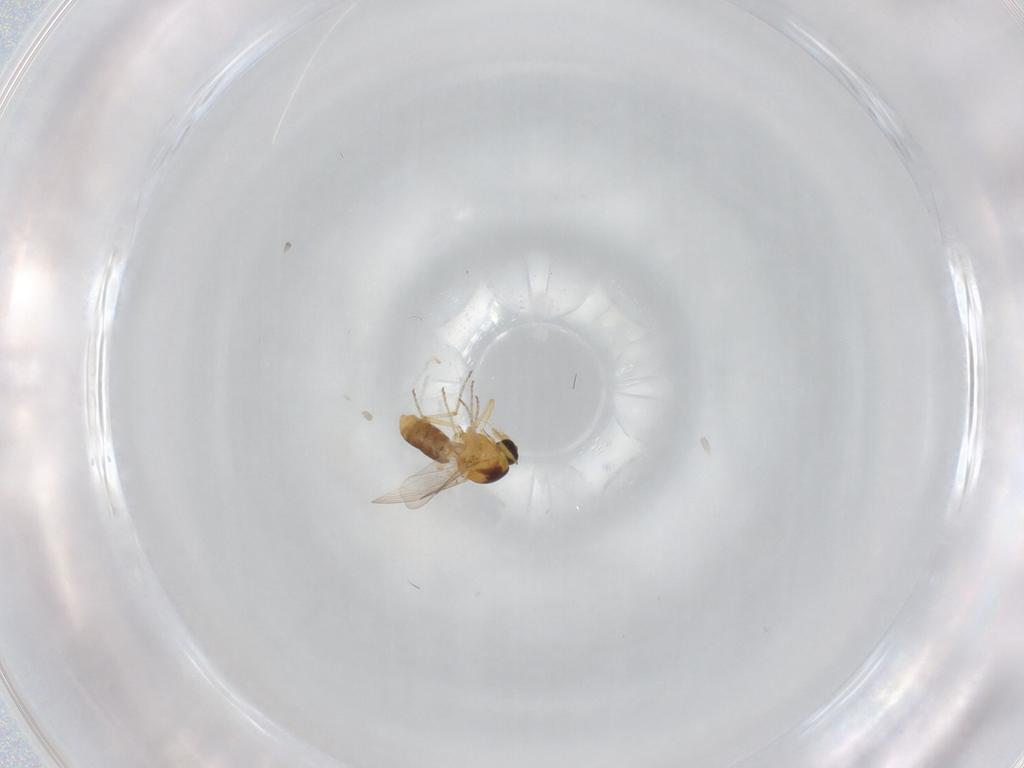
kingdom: Animalia
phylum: Arthropoda
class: Insecta
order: Diptera
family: Ceratopogonidae
